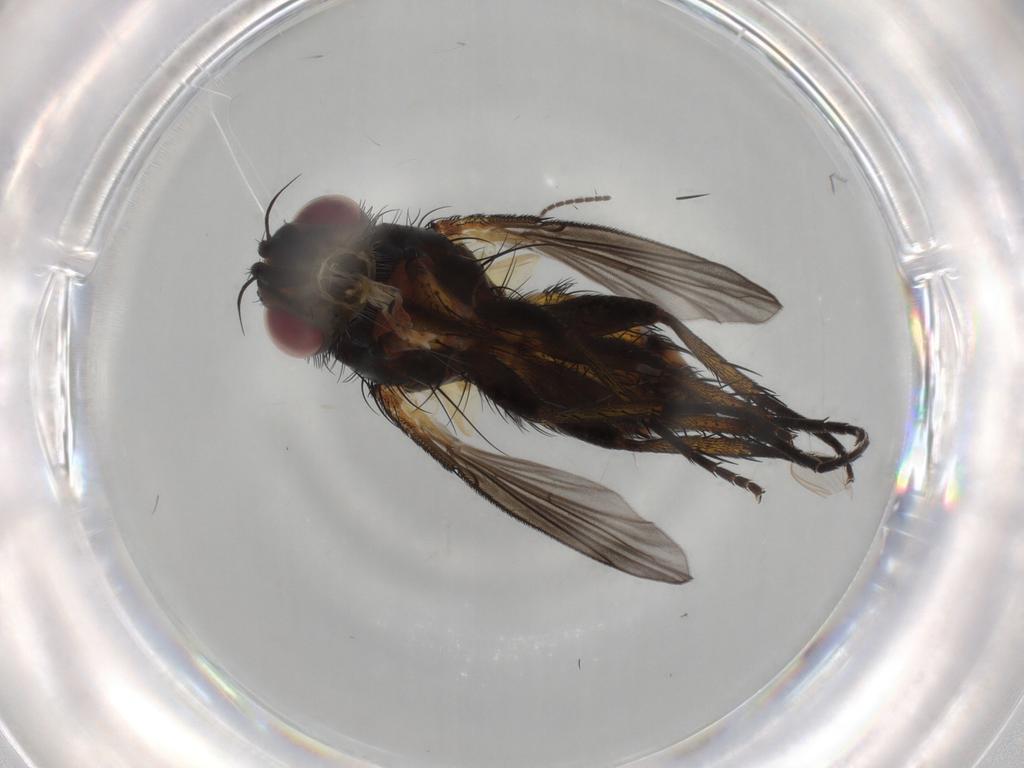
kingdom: Animalia
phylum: Arthropoda
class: Insecta
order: Diptera
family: Tachinidae
